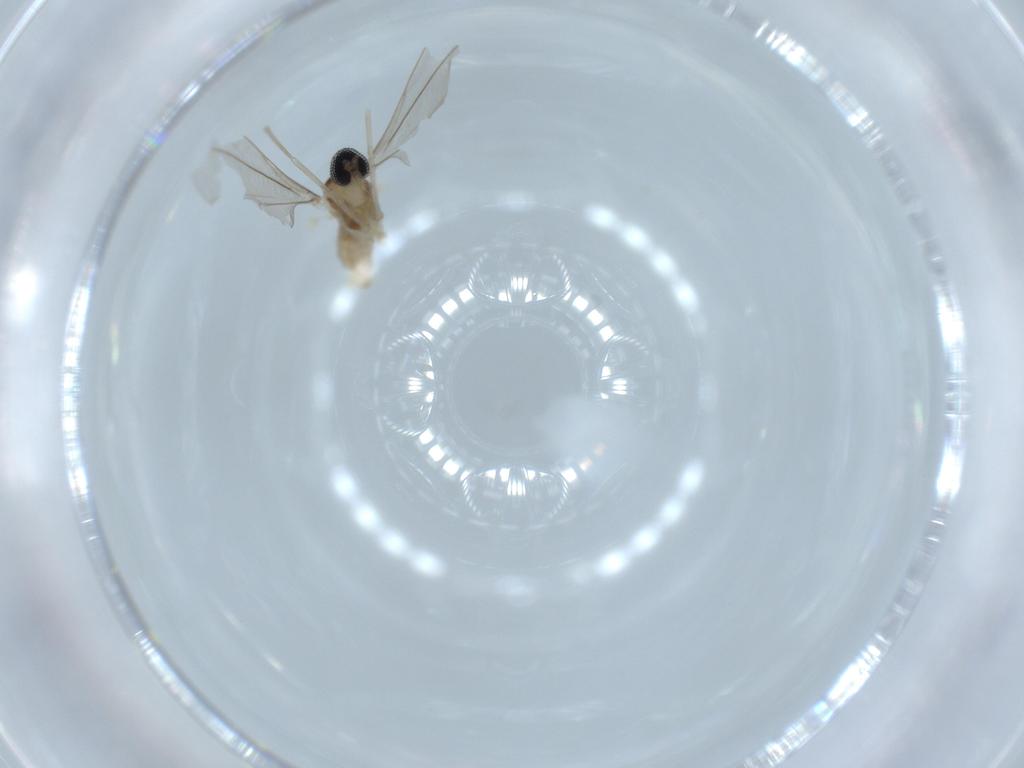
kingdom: Animalia
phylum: Arthropoda
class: Insecta
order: Diptera
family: Cecidomyiidae
